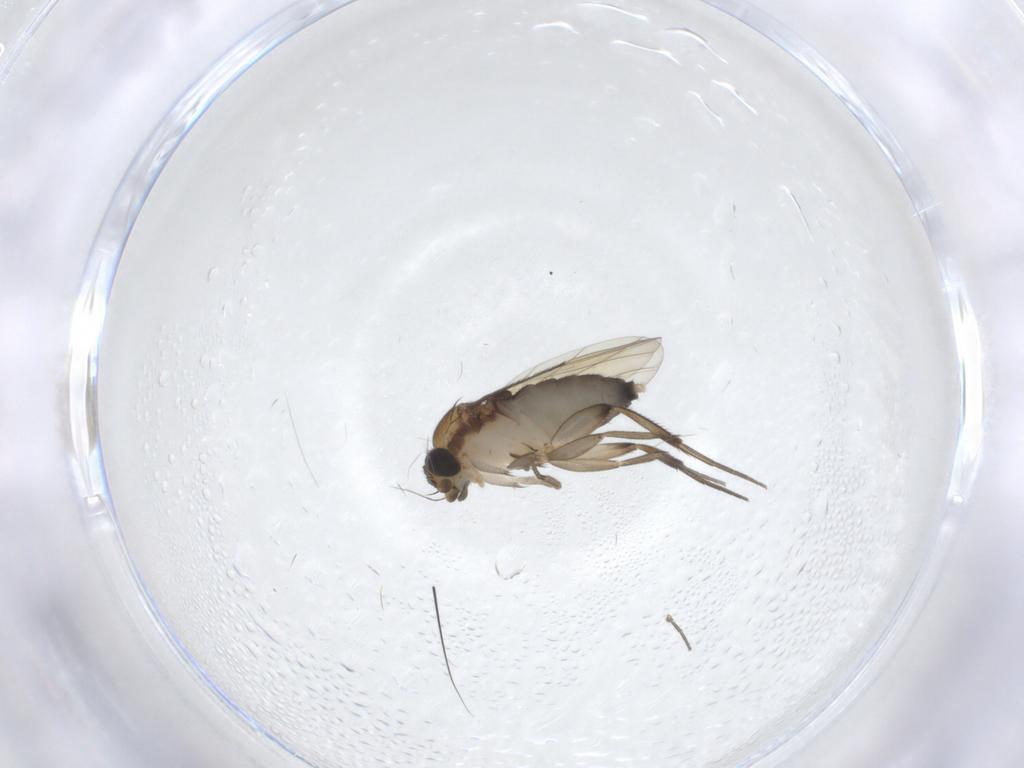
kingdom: Animalia
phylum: Arthropoda
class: Insecta
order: Diptera
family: Phoridae
